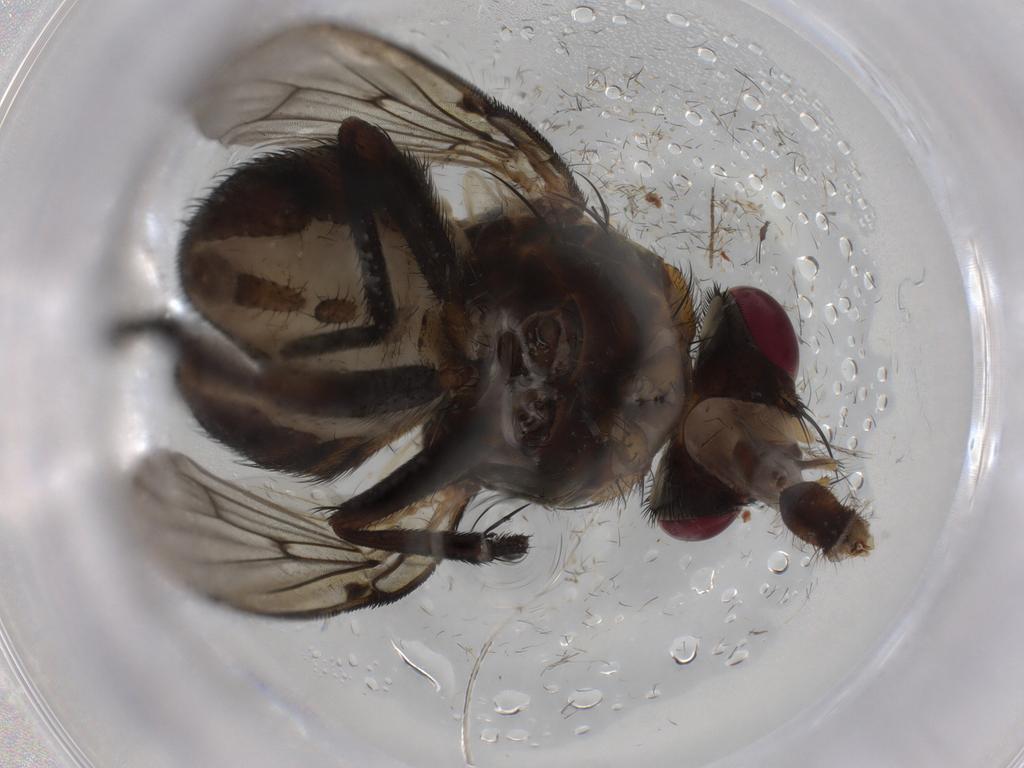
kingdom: Animalia
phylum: Arthropoda
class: Insecta
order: Diptera
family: Muscidae
